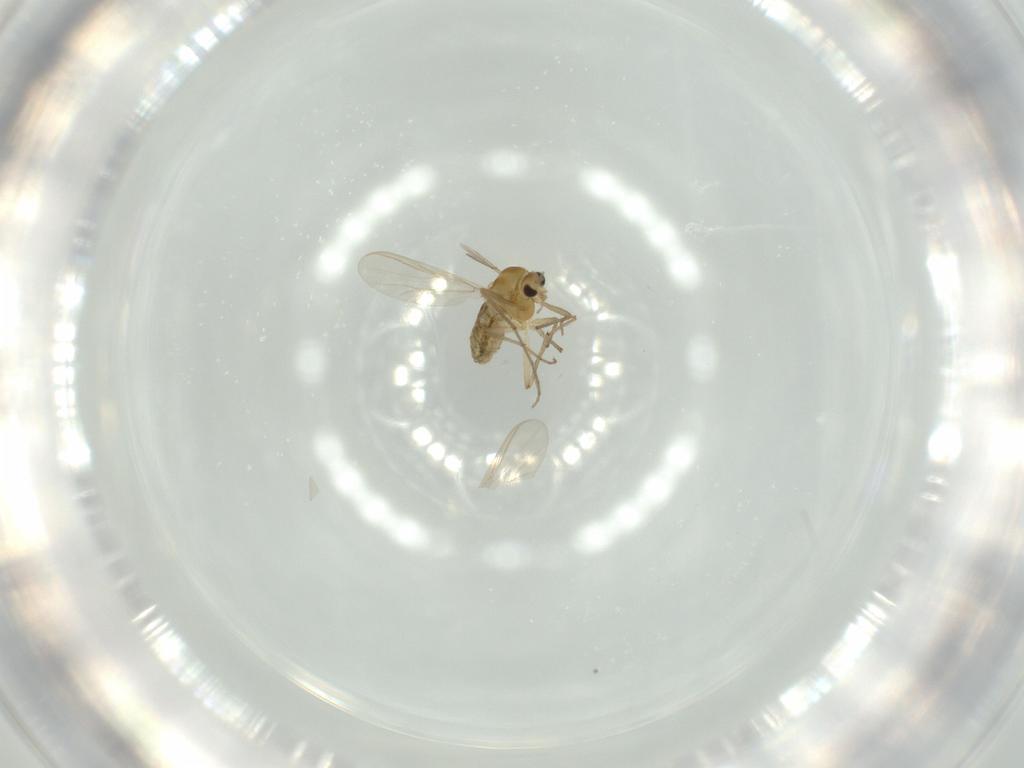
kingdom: Animalia
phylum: Arthropoda
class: Insecta
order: Diptera
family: Chironomidae
